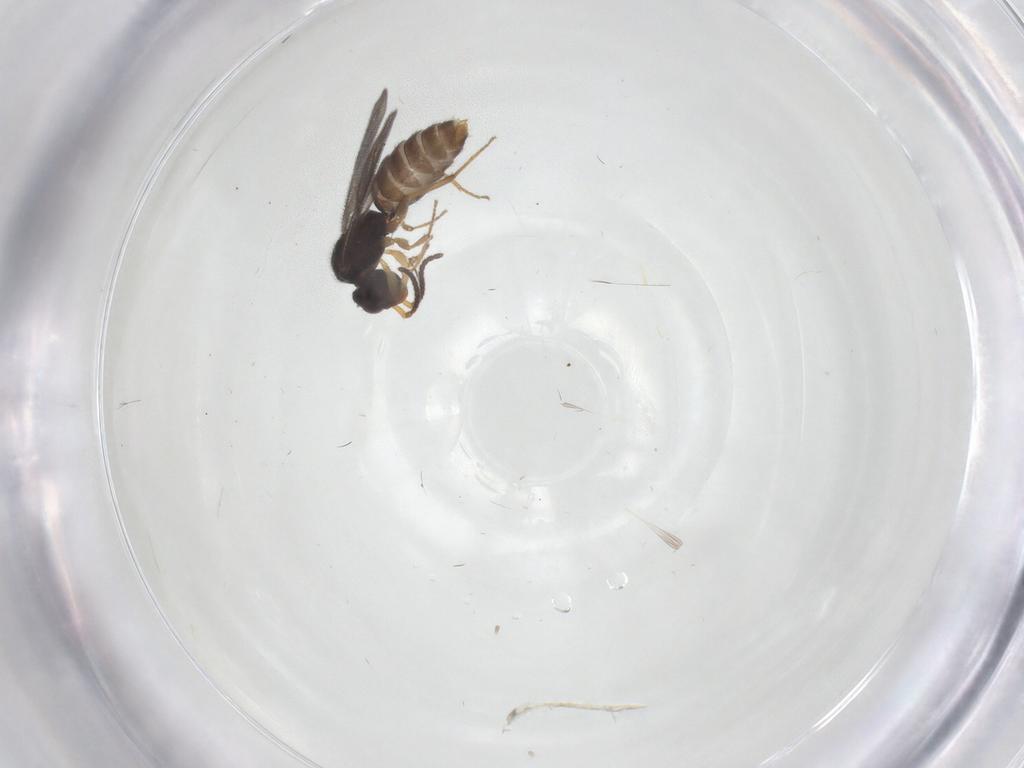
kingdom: Animalia
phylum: Arthropoda
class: Insecta
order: Hymenoptera
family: Bethylidae
